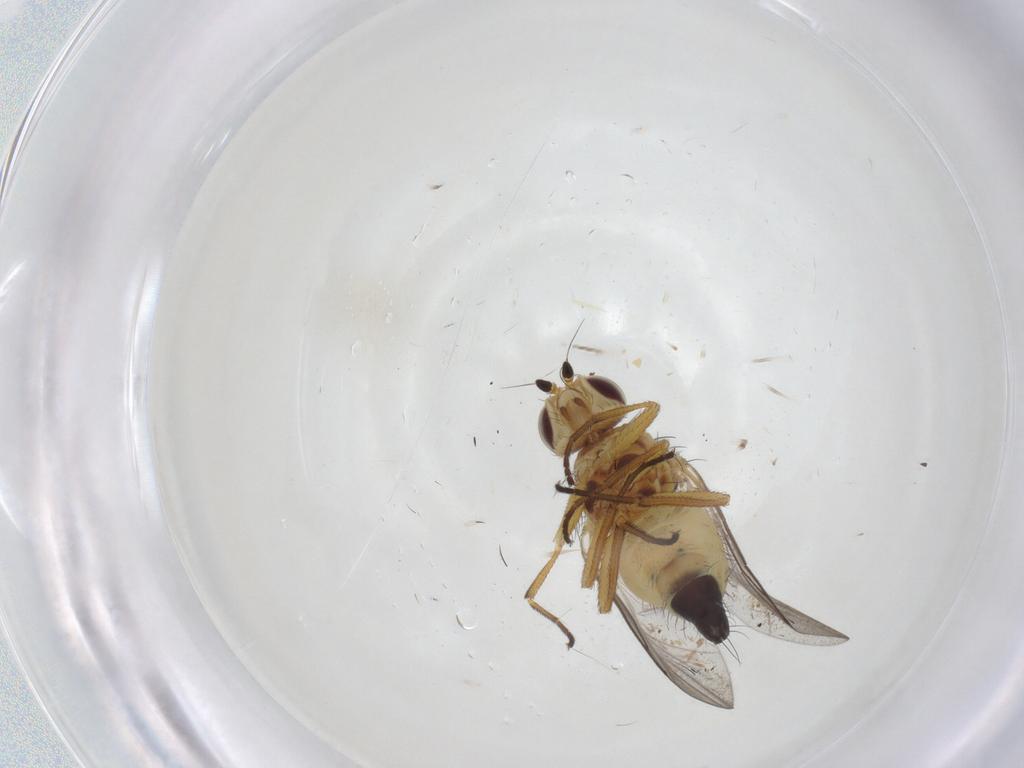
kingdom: Animalia
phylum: Arthropoda
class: Insecta
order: Diptera
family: Agromyzidae
